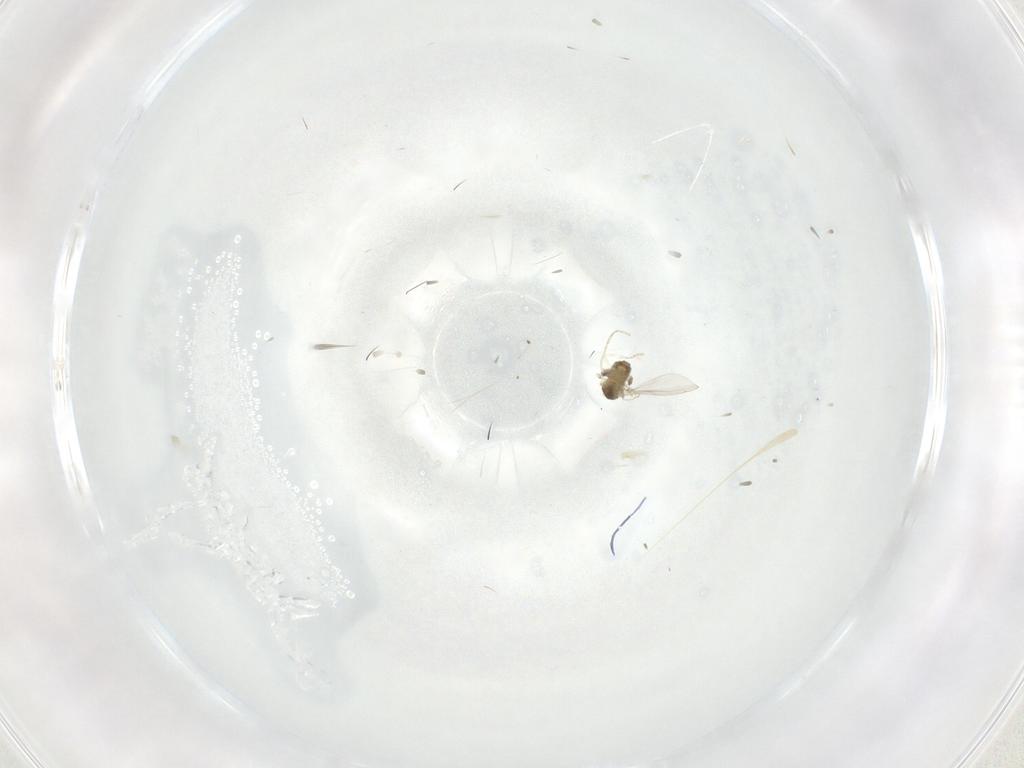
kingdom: Animalia
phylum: Arthropoda
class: Insecta
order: Diptera
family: Cecidomyiidae
